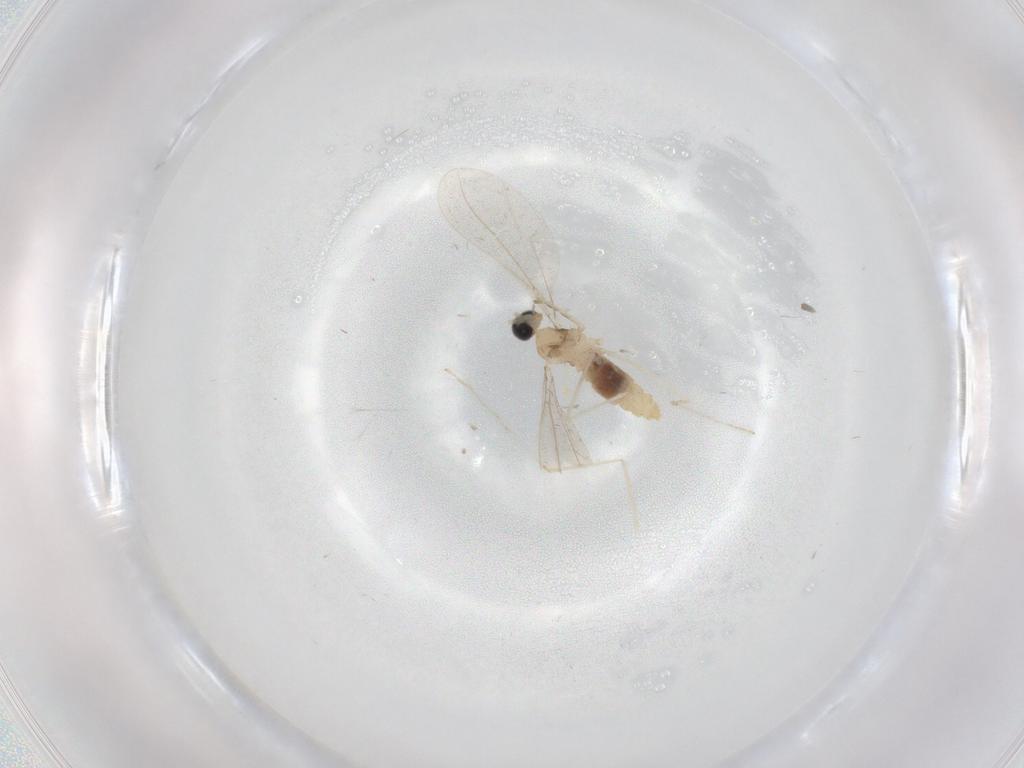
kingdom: Animalia
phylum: Arthropoda
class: Insecta
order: Diptera
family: Cecidomyiidae
